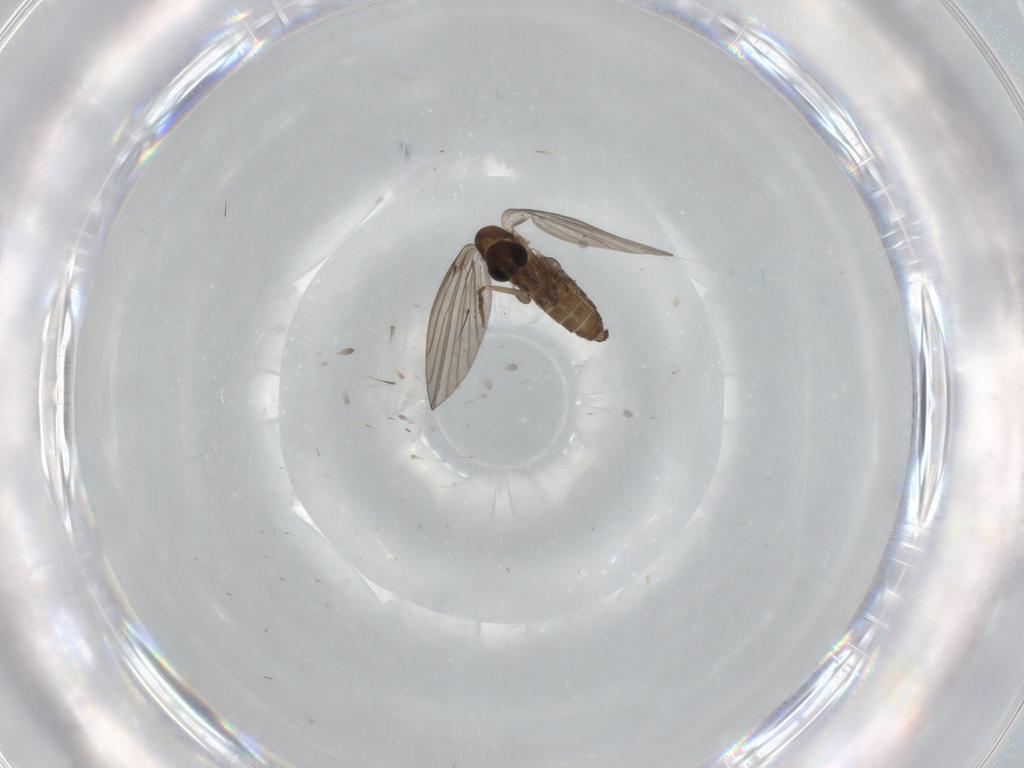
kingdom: Animalia
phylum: Arthropoda
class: Insecta
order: Diptera
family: Psychodidae
